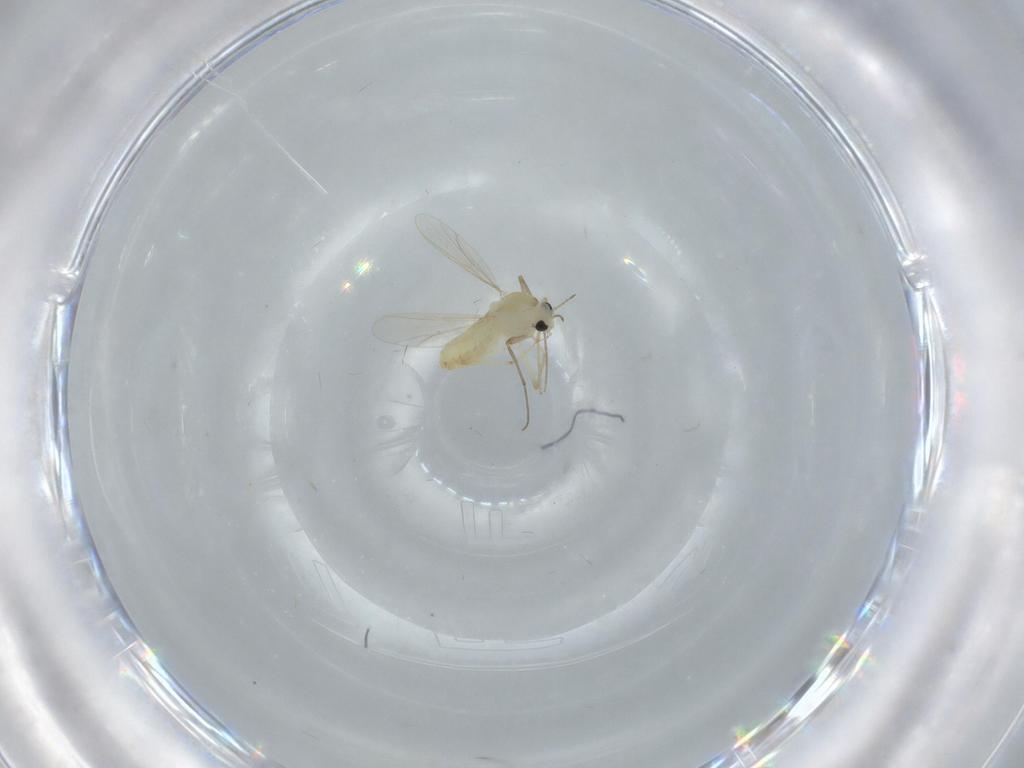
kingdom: Animalia
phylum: Arthropoda
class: Insecta
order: Diptera
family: Chironomidae
